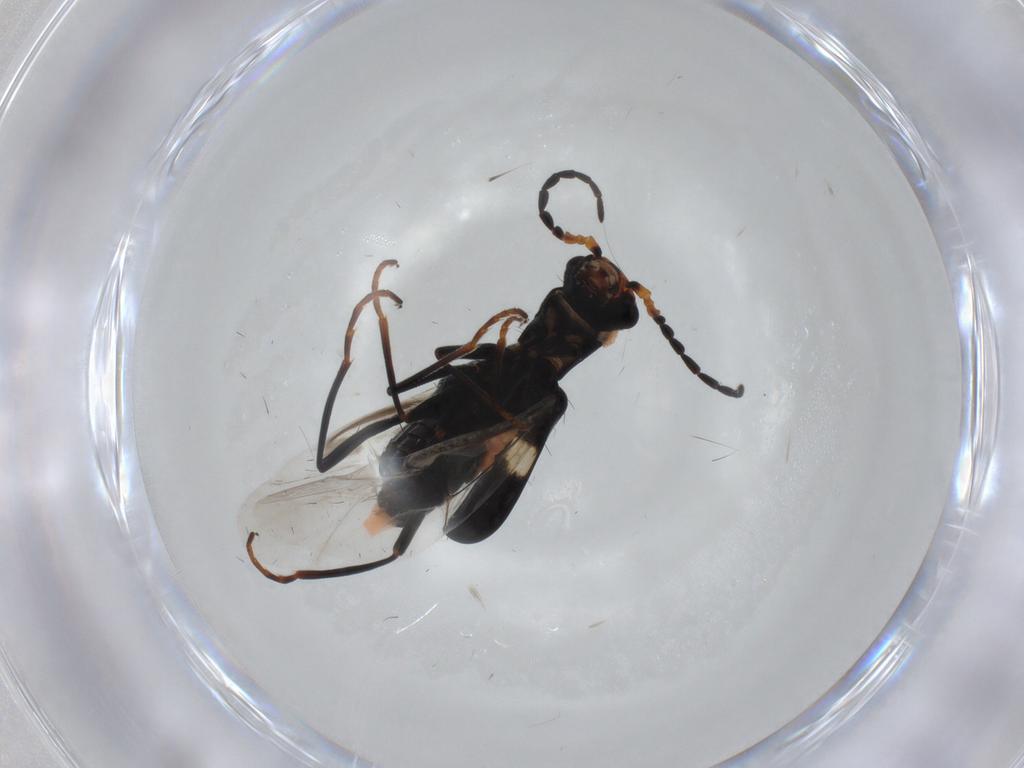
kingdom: Animalia
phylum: Arthropoda
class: Insecta
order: Coleoptera
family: Melyridae
